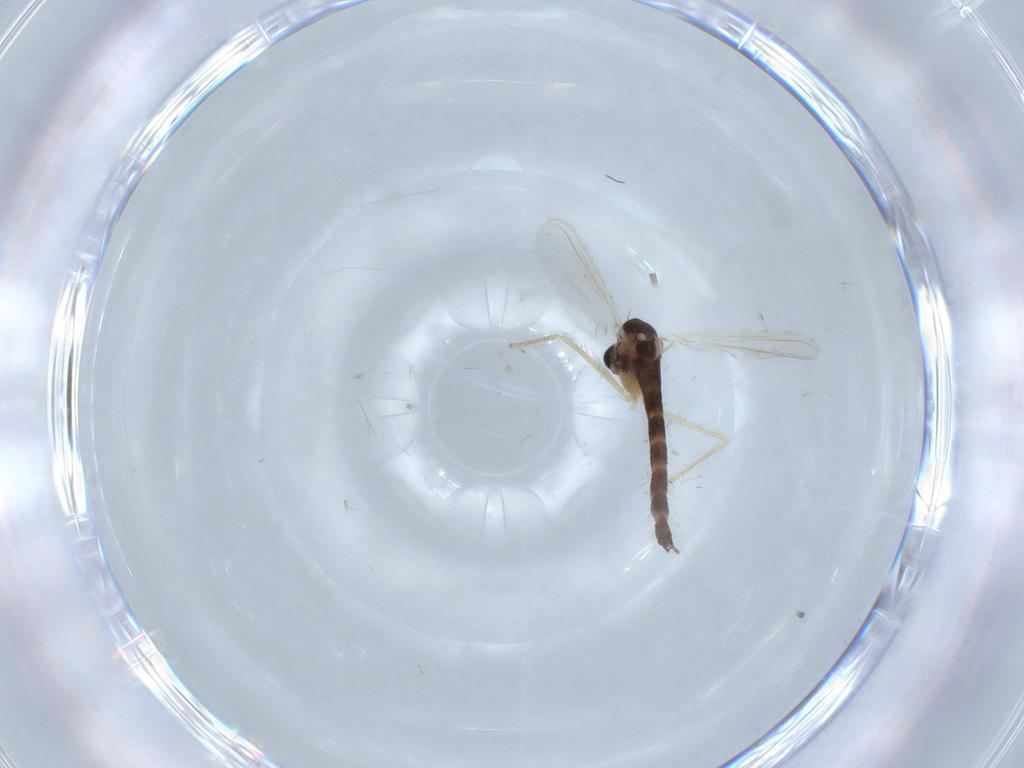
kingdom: Animalia
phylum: Arthropoda
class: Insecta
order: Diptera
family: Chironomidae
